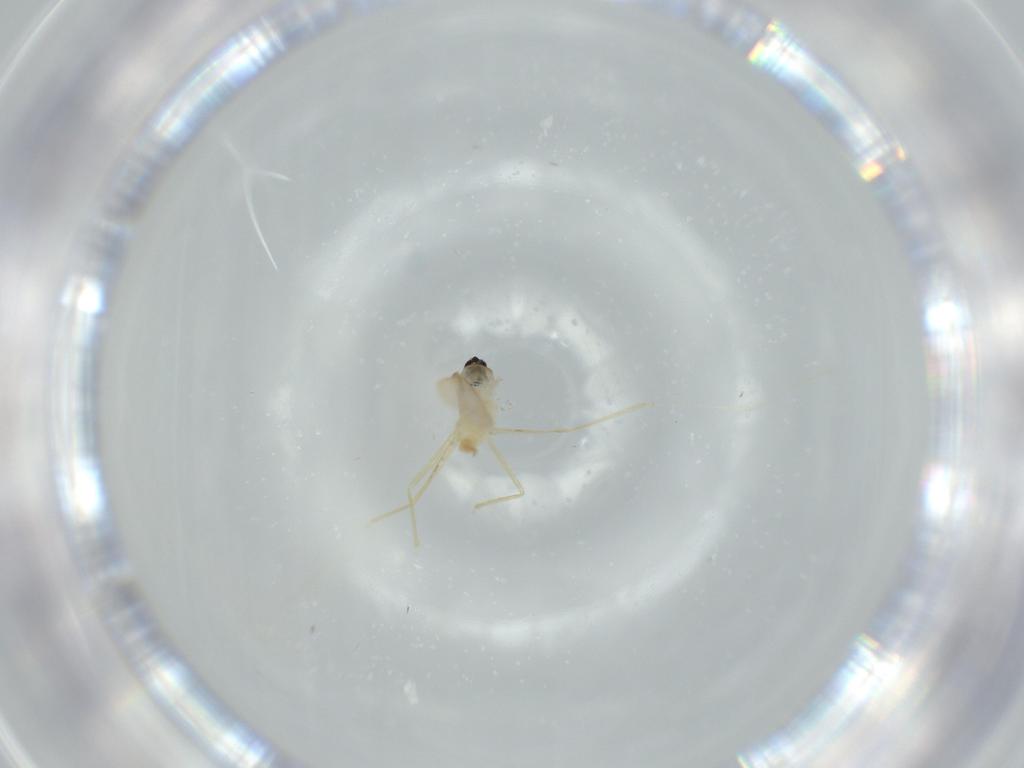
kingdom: Animalia
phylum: Arthropoda
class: Insecta
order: Diptera
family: Cecidomyiidae
